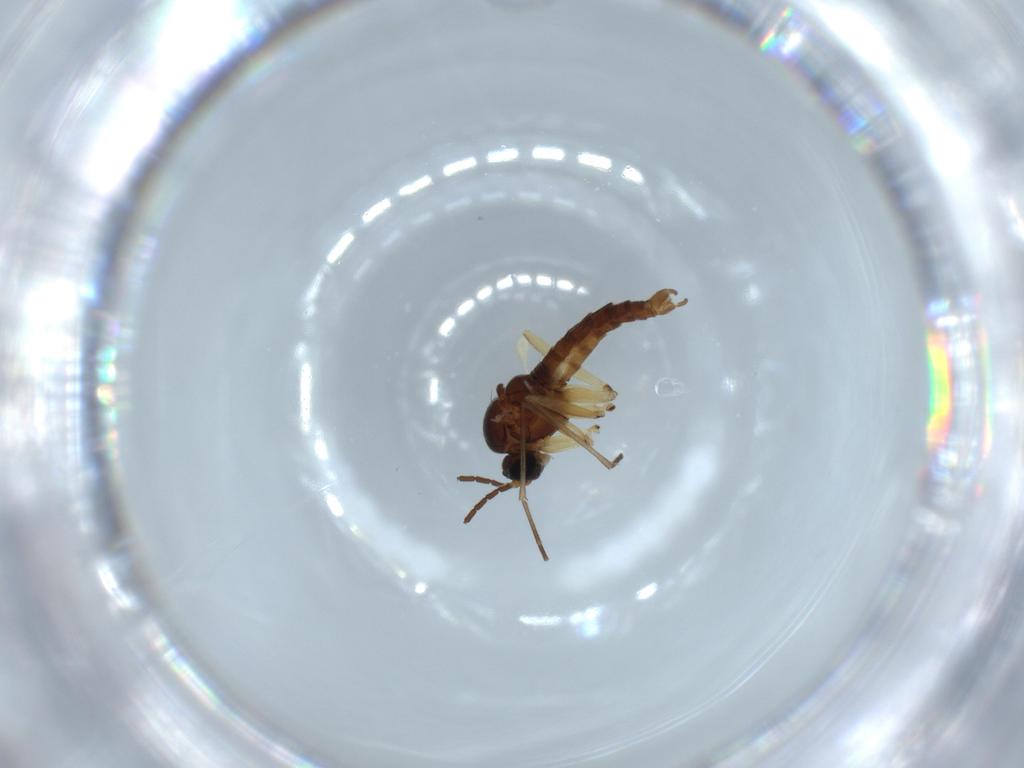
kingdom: Animalia
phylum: Arthropoda
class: Insecta
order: Diptera
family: Sciaridae
